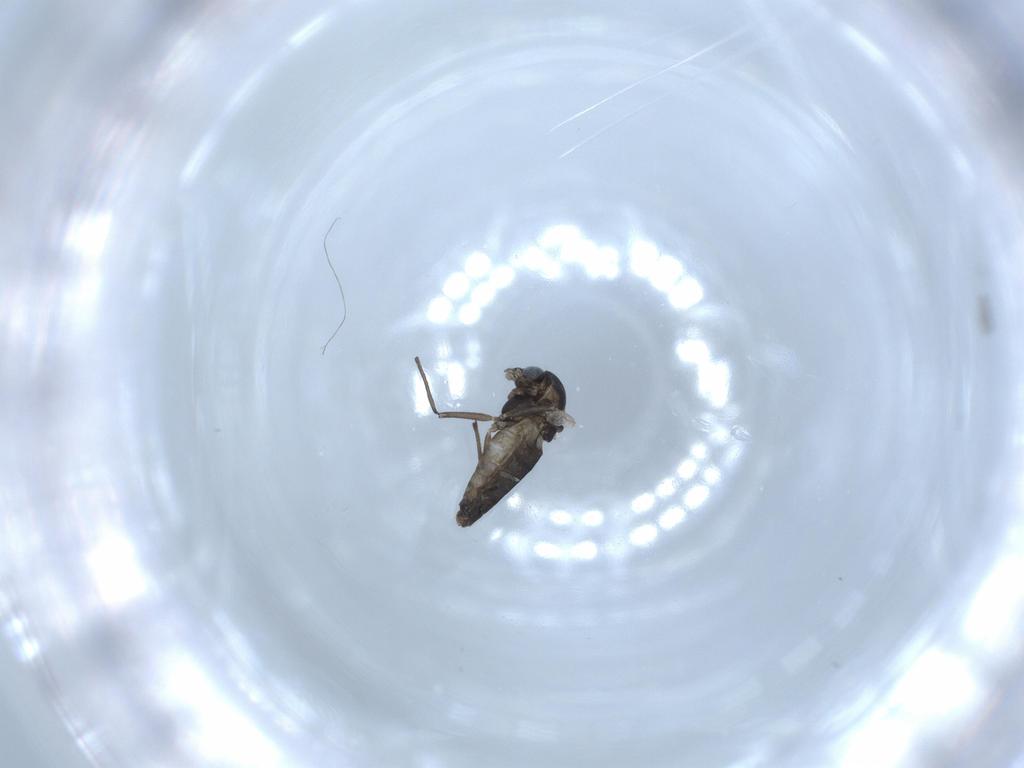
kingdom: Animalia
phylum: Arthropoda
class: Insecta
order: Diptera
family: Chironomidae
